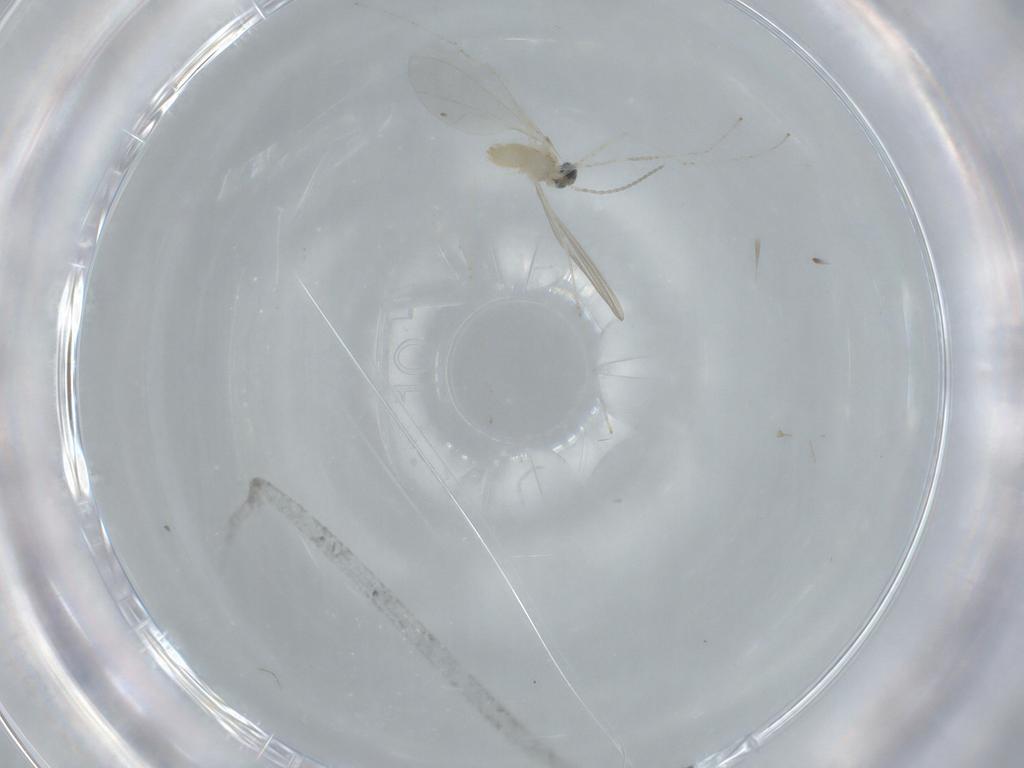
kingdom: Animalia
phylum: Arthropoda
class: Insecta
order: Diptera
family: Cecidomyiidae
